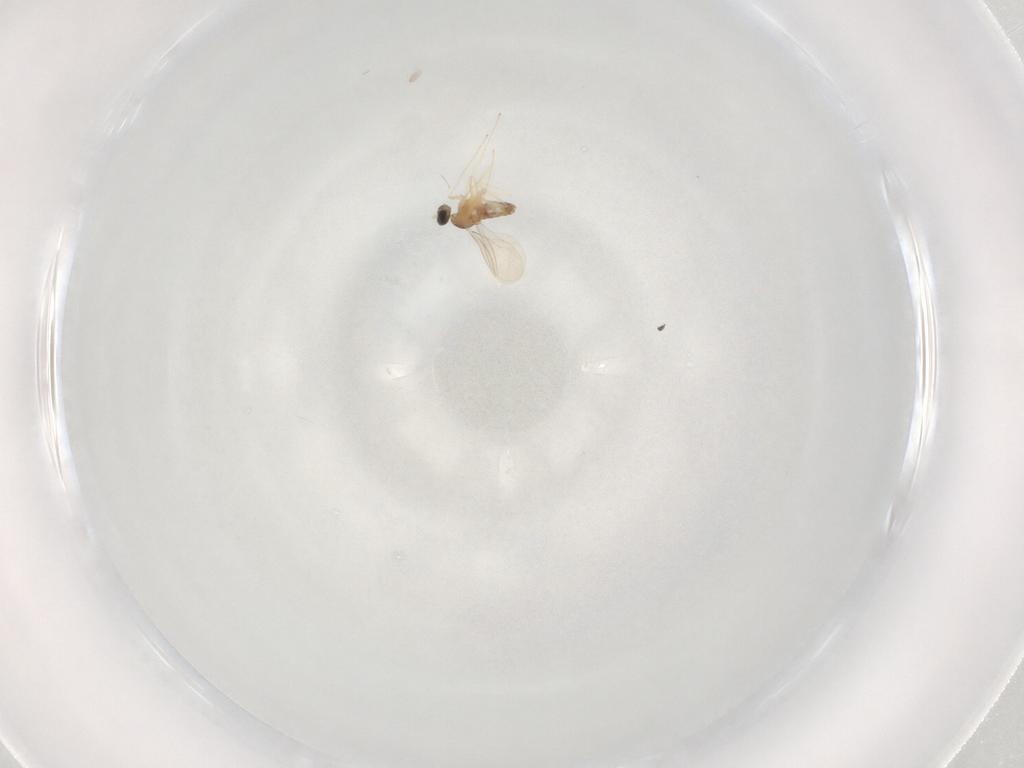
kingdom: Animalia
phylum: Arthropoda
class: Insecta
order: Diptera
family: Cecidomyiidae
